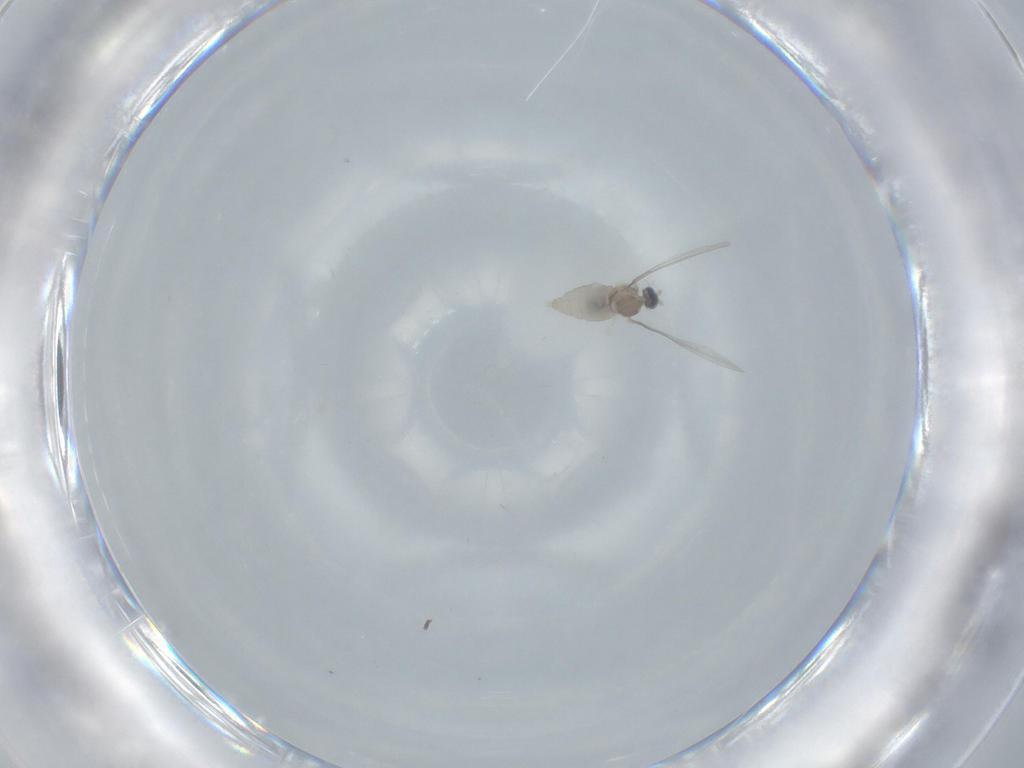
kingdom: Animalia
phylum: Arthropoda
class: Insecta
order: Diptera
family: Cecidomyiidae
